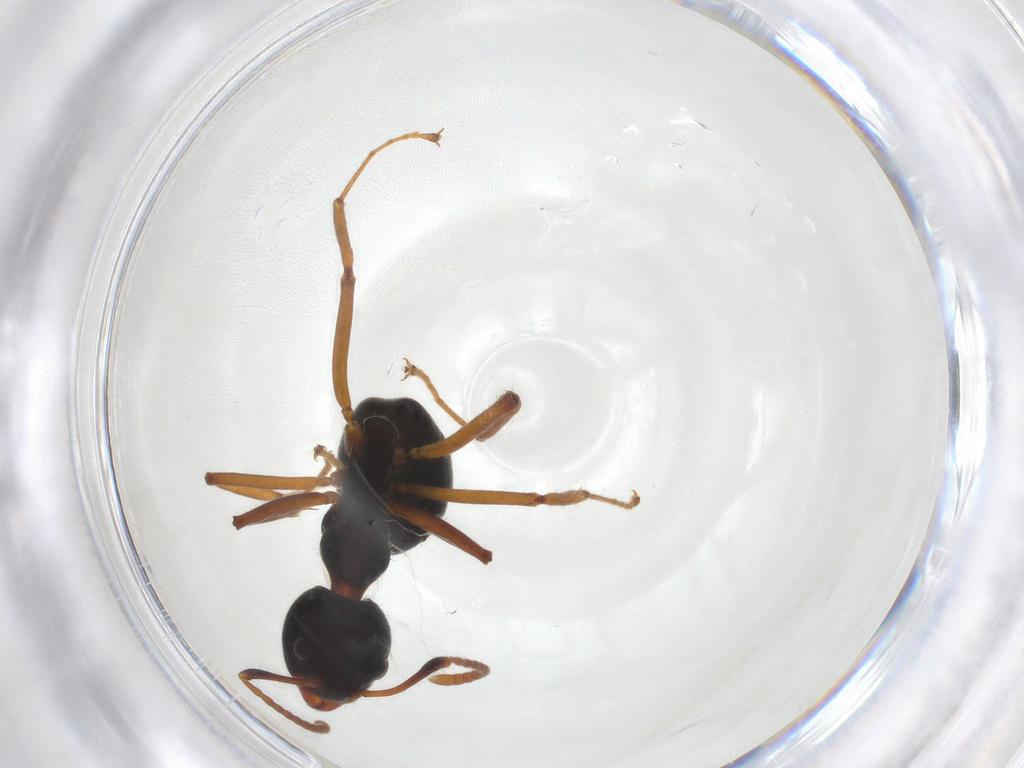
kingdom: Animalia
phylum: Arthropoda
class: Insecta
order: Hymenoptera
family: Formicidae
